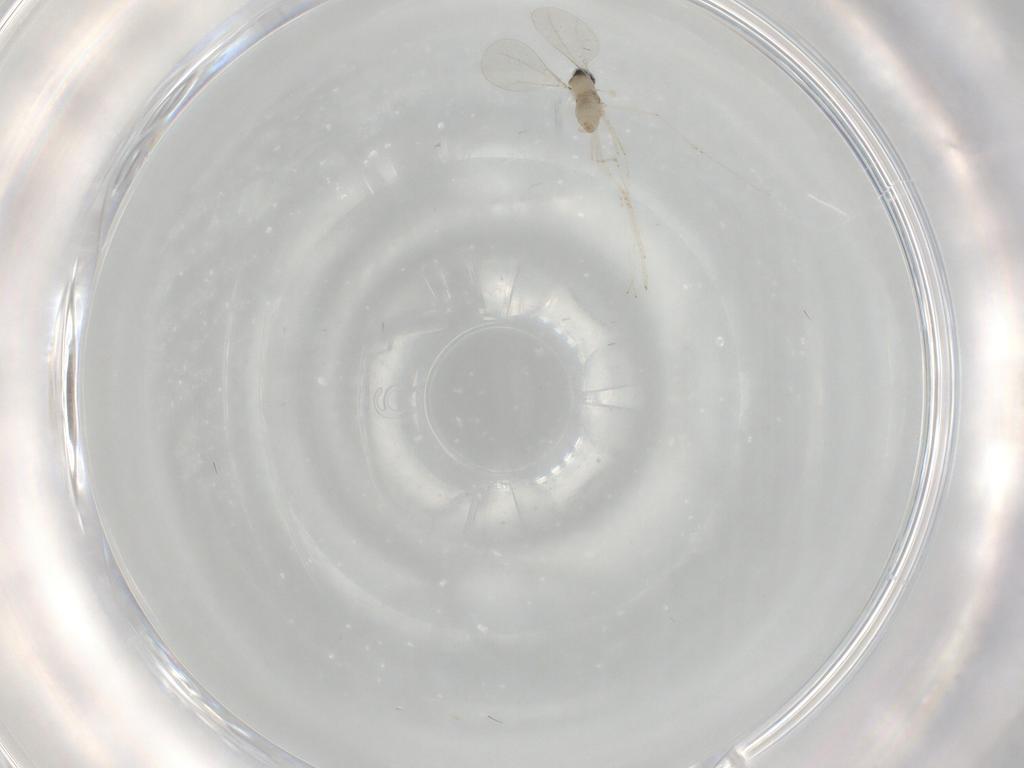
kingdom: Animalia
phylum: Arthropoda
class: Insecta
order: Diptera
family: Cecidomyiidae
